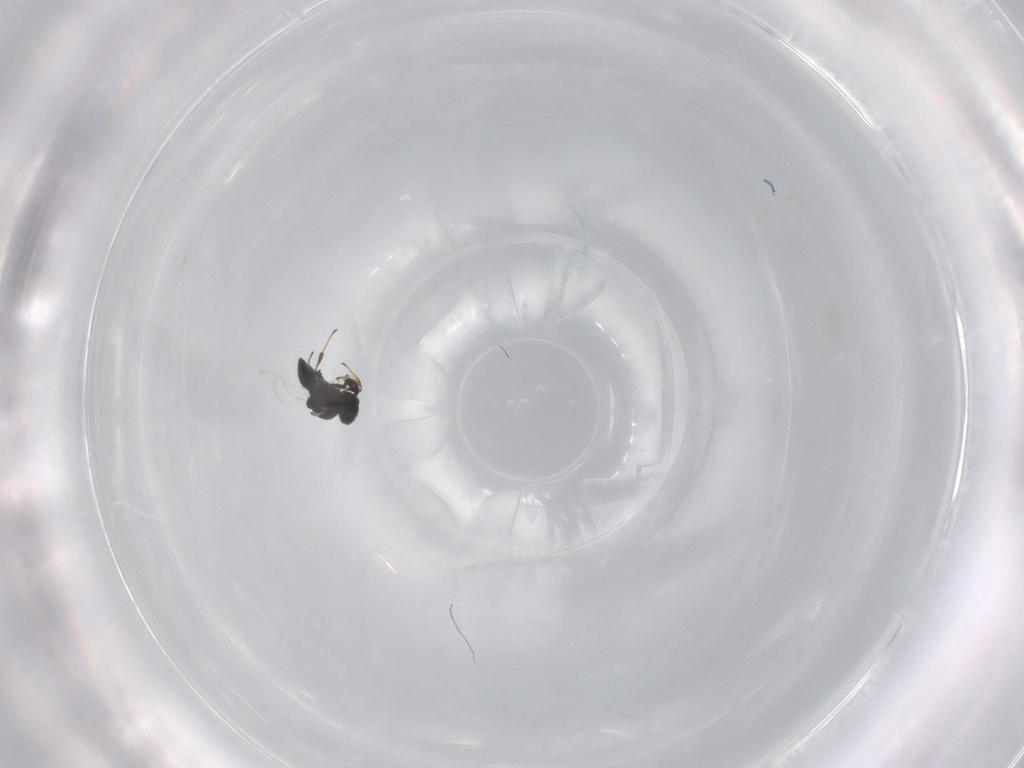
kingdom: Animalia
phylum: Arthropoda
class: Insecta
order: Hymenoptera
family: Platygastridae
